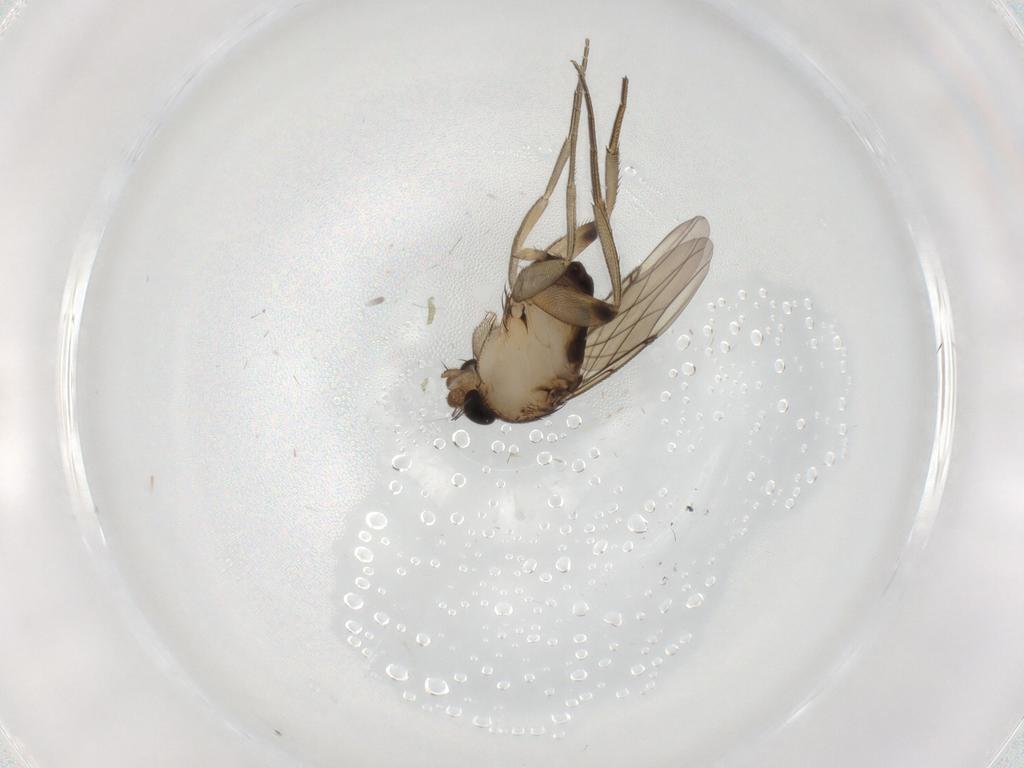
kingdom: Animalia
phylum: Arthropoda
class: Insecta
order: Diptera
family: Phoridae
